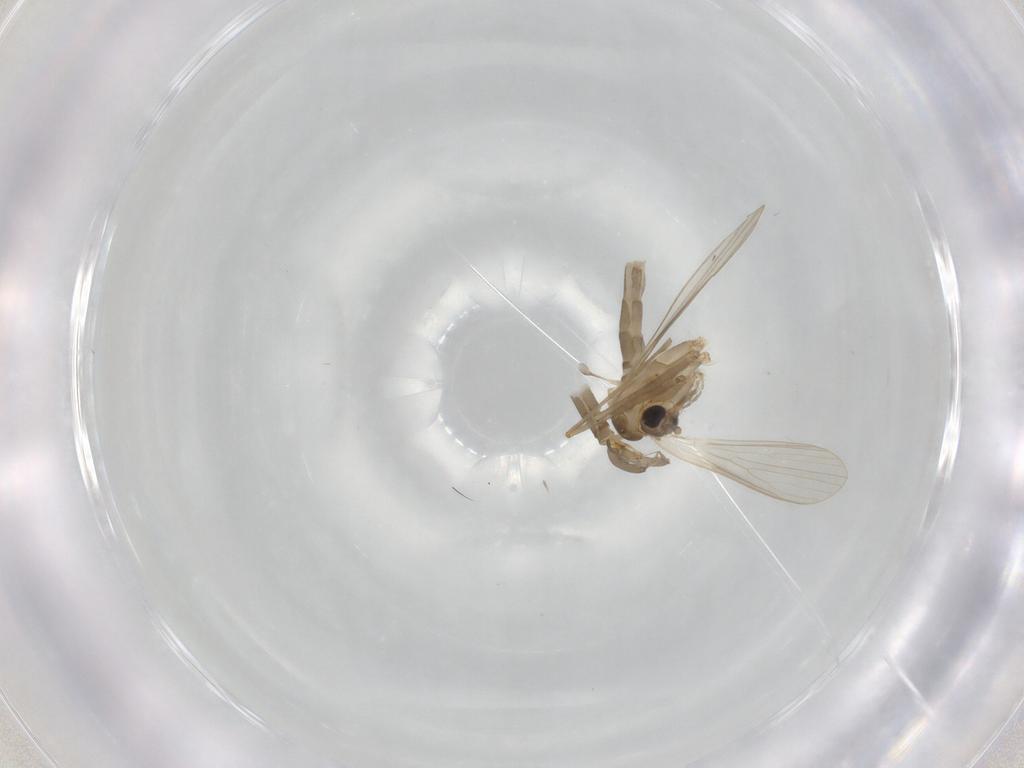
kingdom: Animalia
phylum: Arthropoda
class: Insecta
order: Diptera
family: Psychodidae
